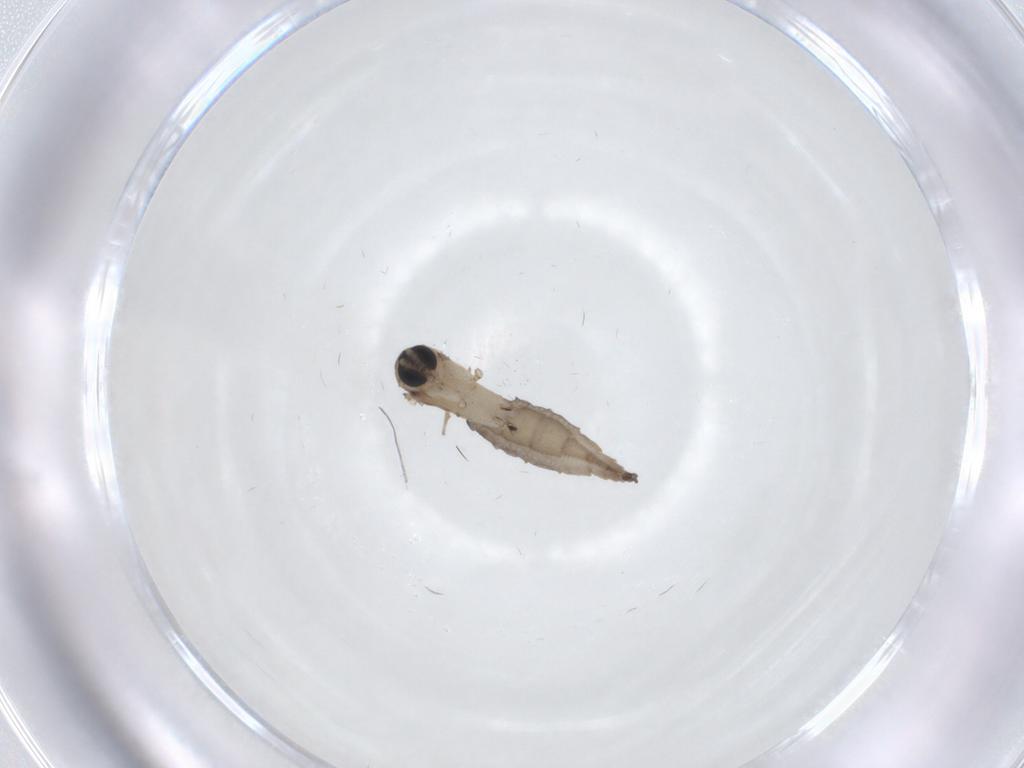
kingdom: Animalia
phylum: Arthropoda
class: Insecta
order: Diptera
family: Sciaridae
